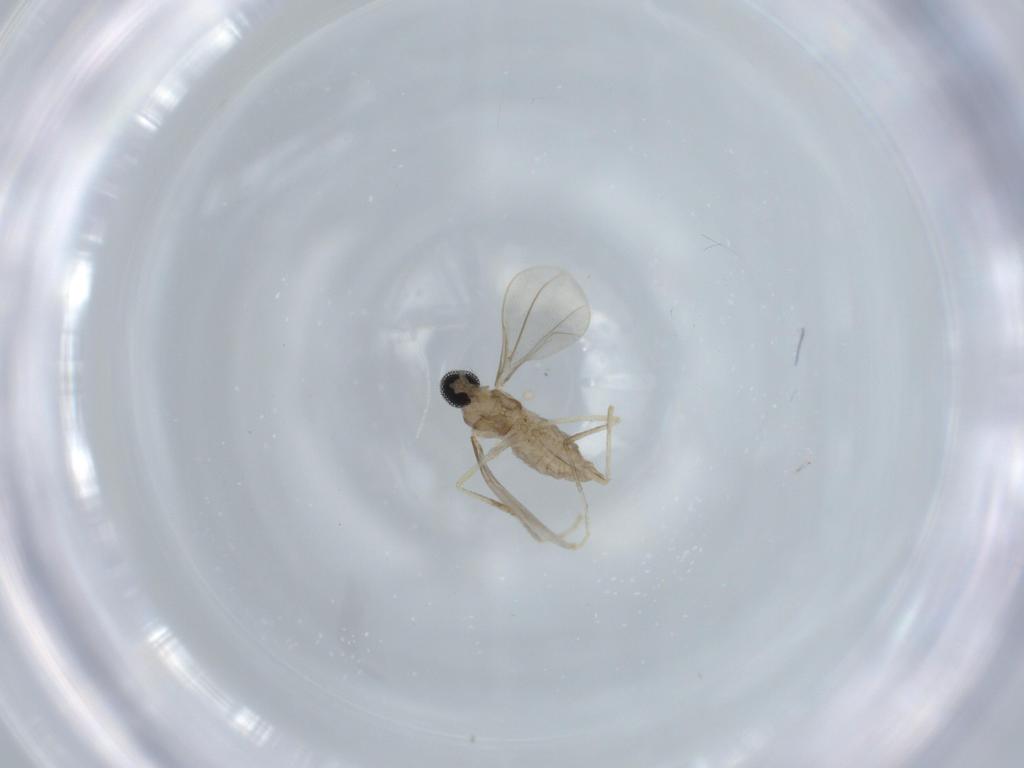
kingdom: Animalia
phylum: Arthropoda
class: Insecta
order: Diptera
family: Cecidomyiidae
